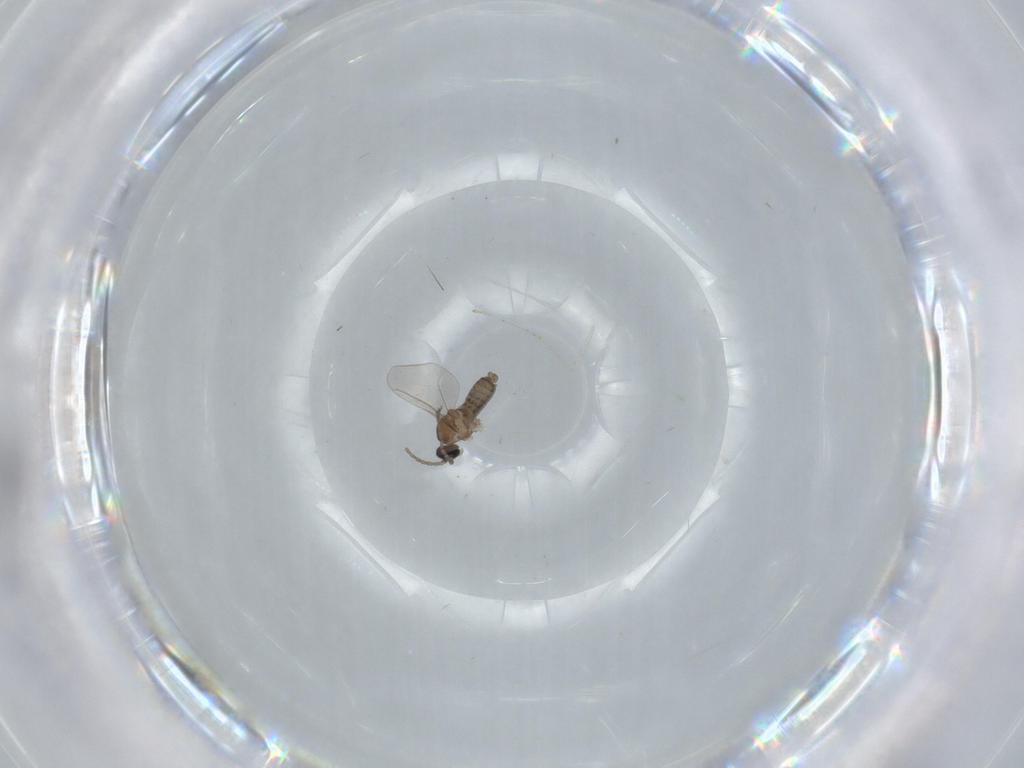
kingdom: Animalia
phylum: Arthropoda
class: Insecta
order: Diptera
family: Cecidomyiidae
